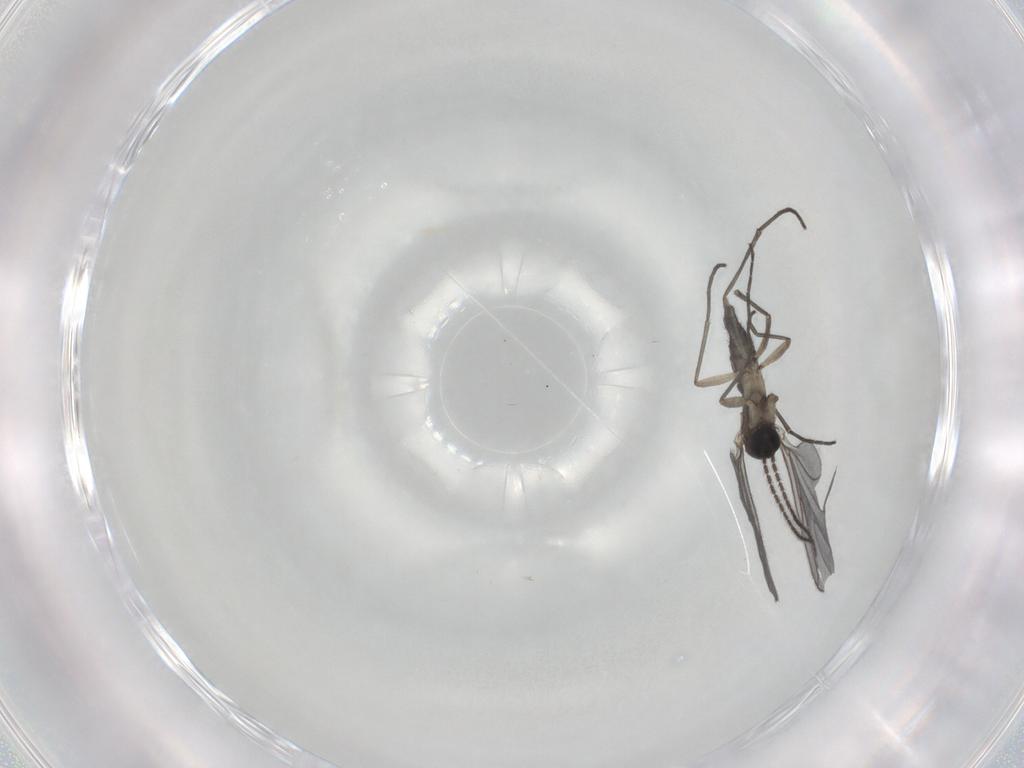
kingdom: Animalia
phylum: Arthropoda
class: Insecta
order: Diptera
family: Sciaridae
